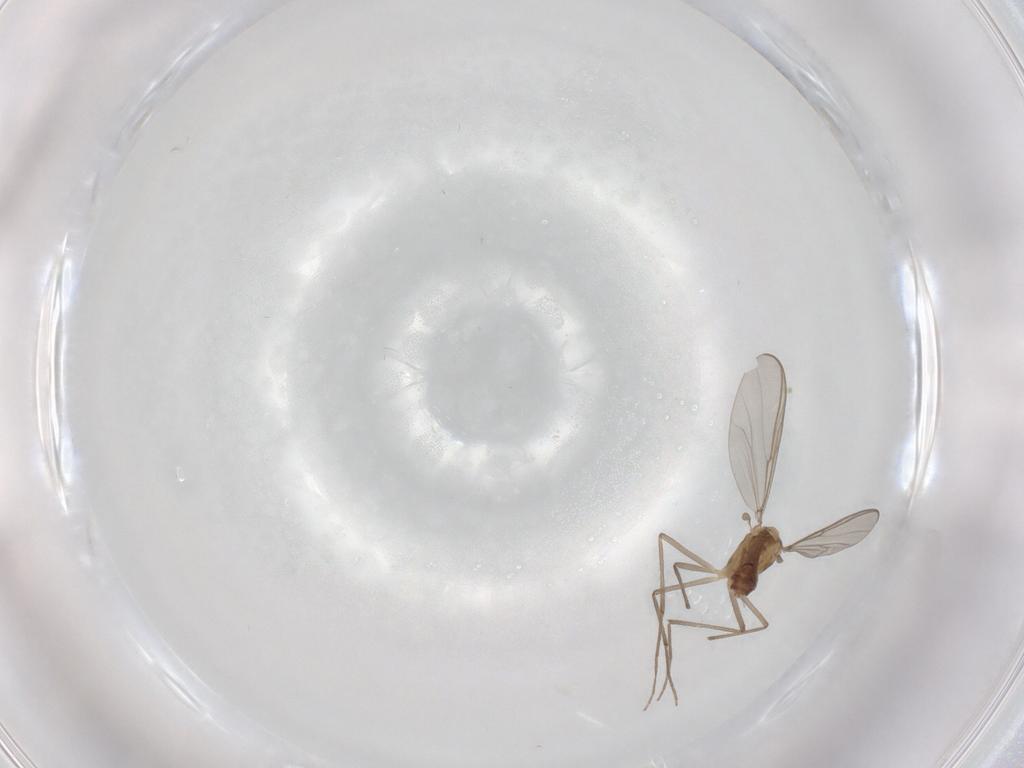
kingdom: Animalia
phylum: Arthropoda
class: Insecta
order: Diptera
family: Chironomidae
